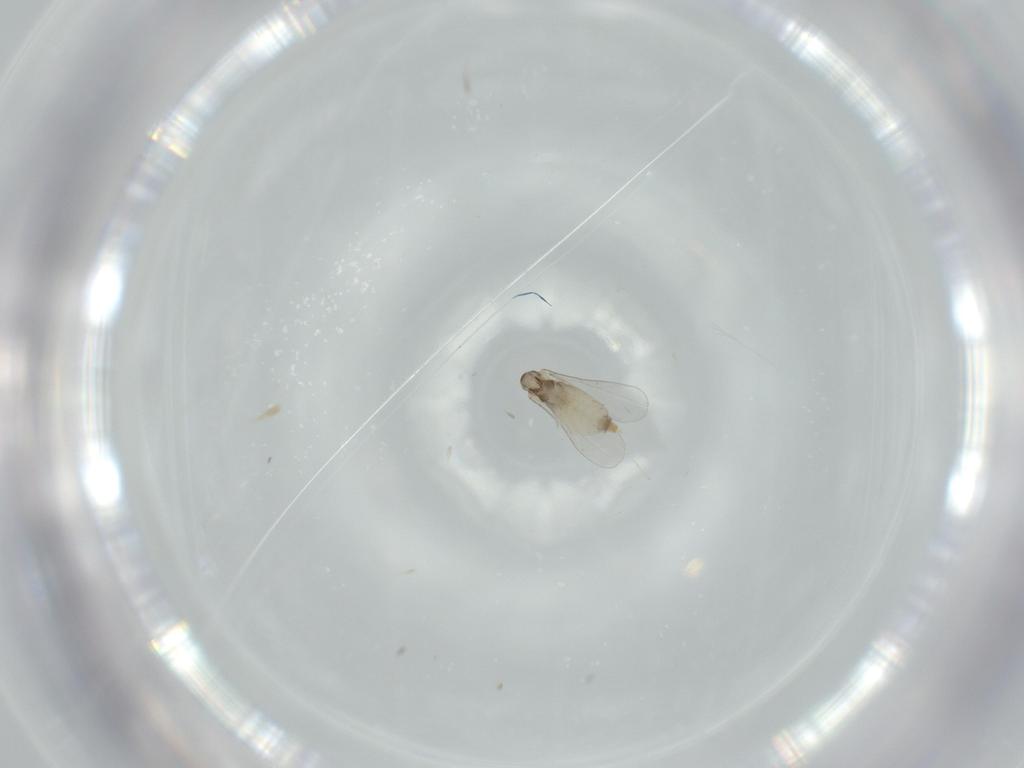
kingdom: Animalia
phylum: Arthropoda
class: Insecta
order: Diptera
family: Cecidomyiidae
